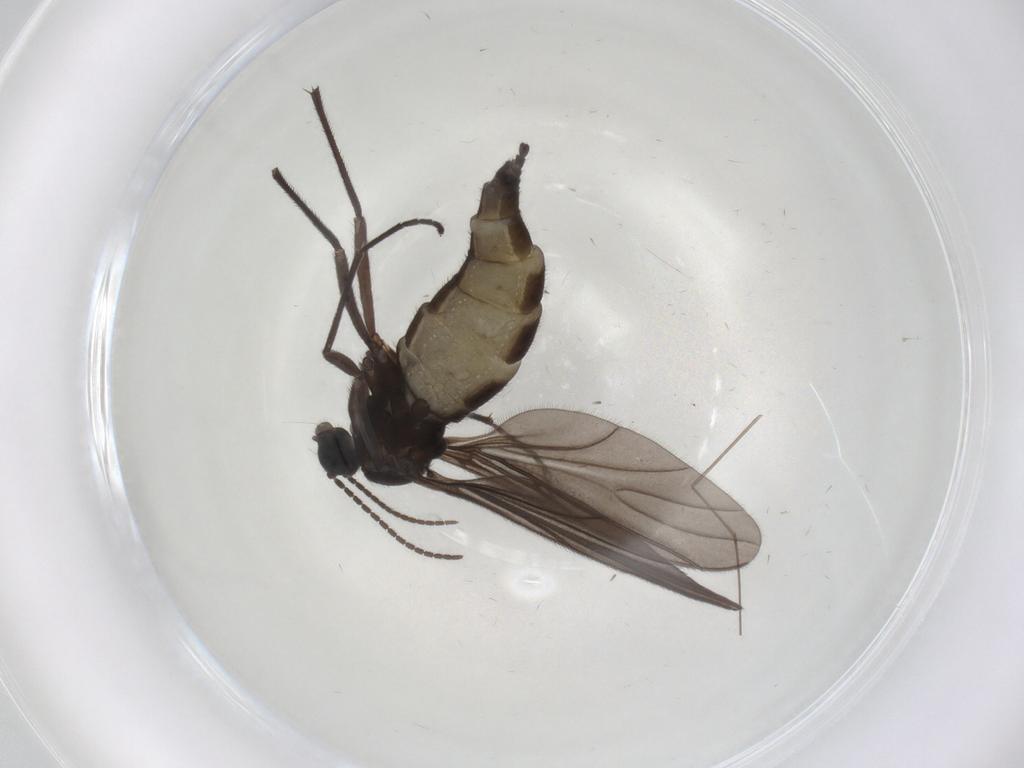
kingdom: Animalia
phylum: Arthropoda
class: Insecta
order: Diptera
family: Sciaridae
